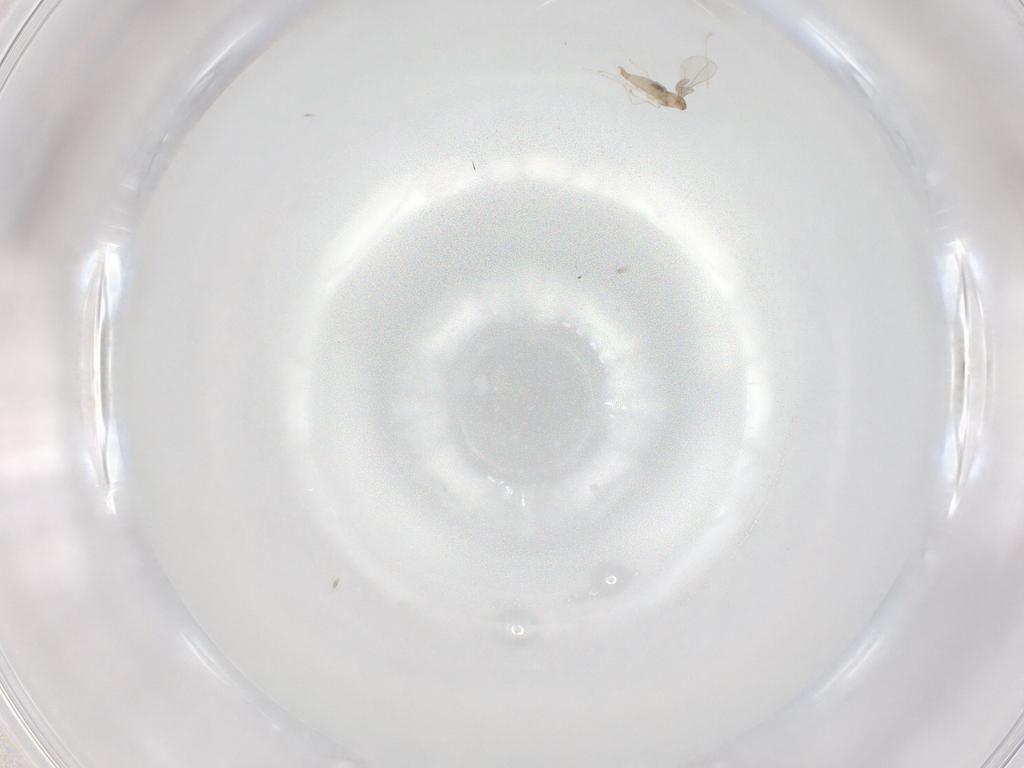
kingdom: Animalia
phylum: Arthropoda
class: Insecta
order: Diptera
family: Cecidomyiidae
